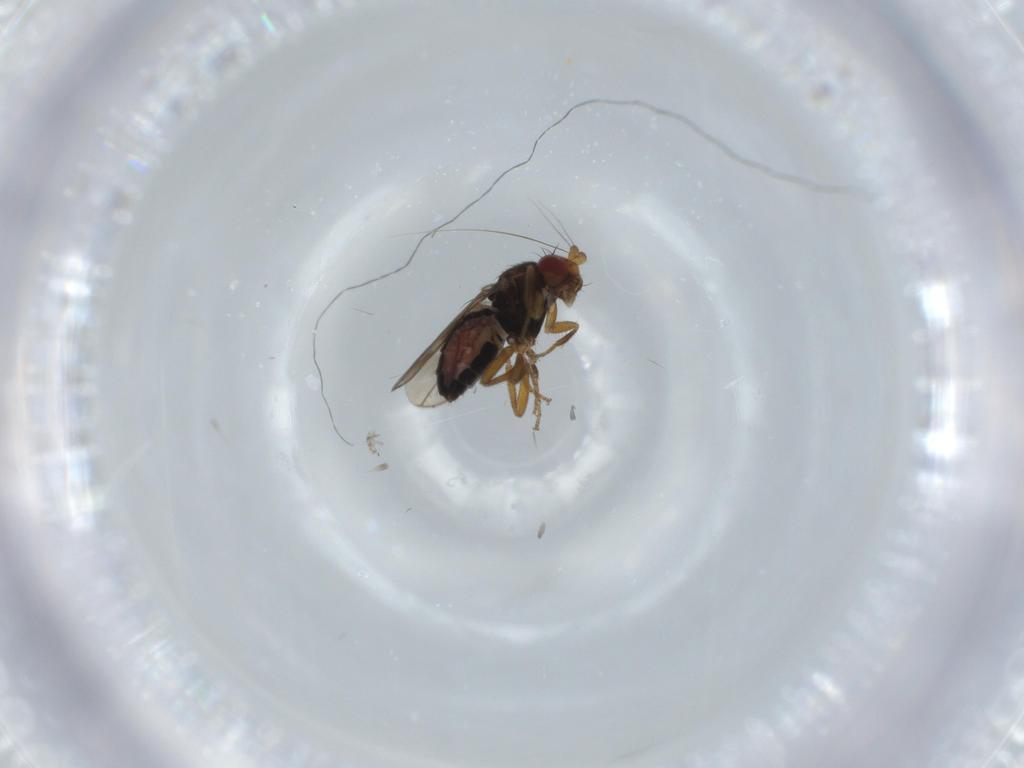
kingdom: Animalia
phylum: Arthropoda
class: Insecta
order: Diptera
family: Sphaeroceridae
